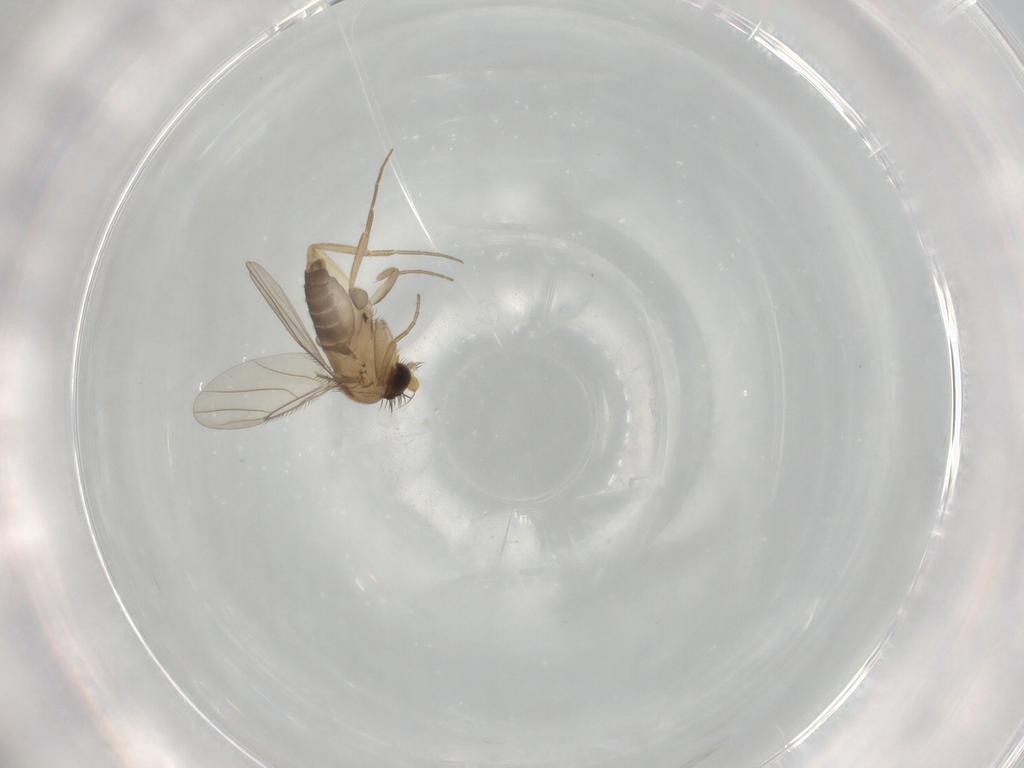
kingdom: Animalia
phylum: Arthropoda
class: Insecta
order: Diptera
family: Phoridae
